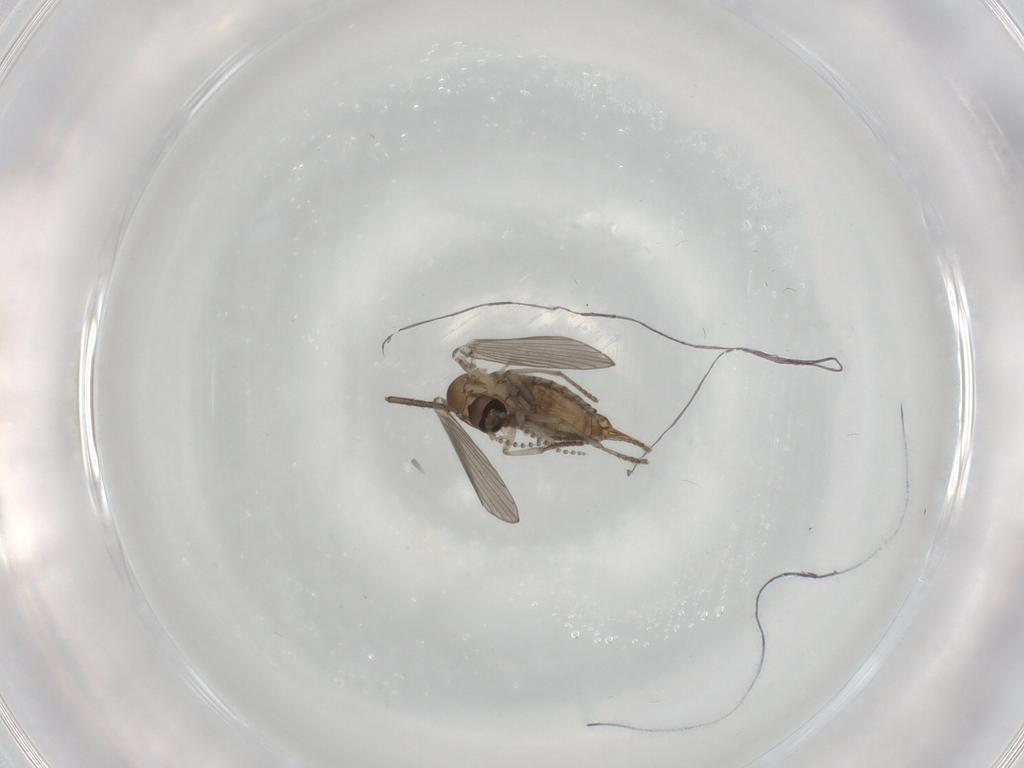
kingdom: Animalia
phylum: Arthropoda
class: Insecta
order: Diptera
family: Psychodidae
